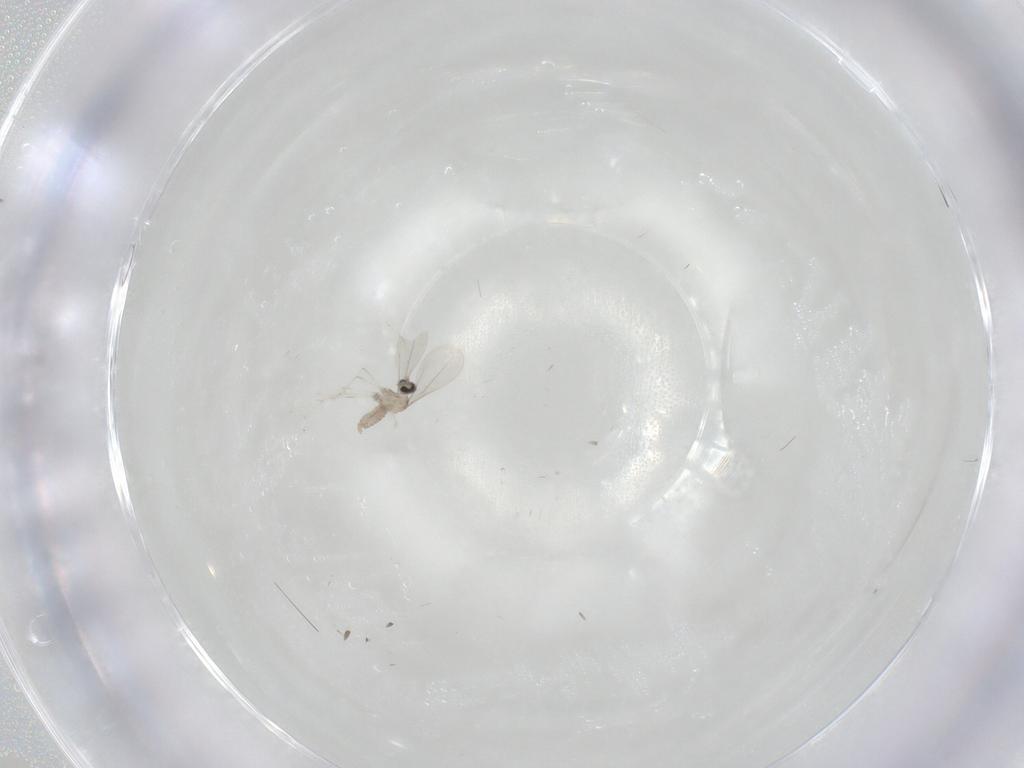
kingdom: Animalia
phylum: Arthropoda
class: Insecta
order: Diptera
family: Cecidomyiidae
